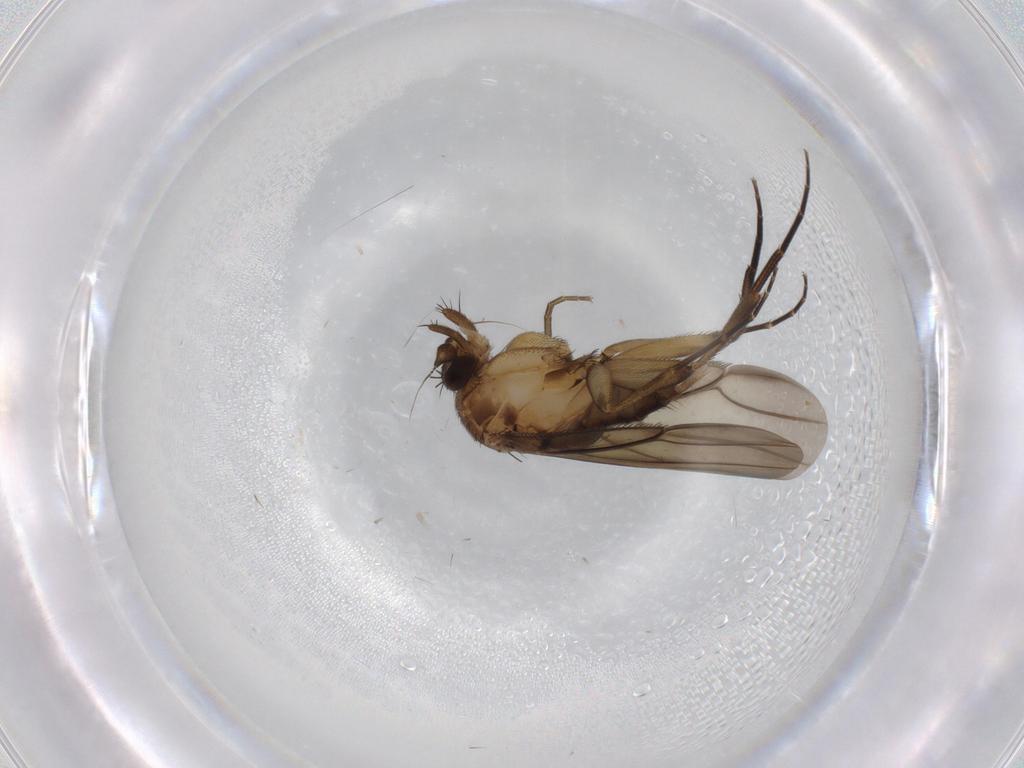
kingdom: Animalia
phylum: Arthropoda
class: Insecta
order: Diptera
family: Phoridae
